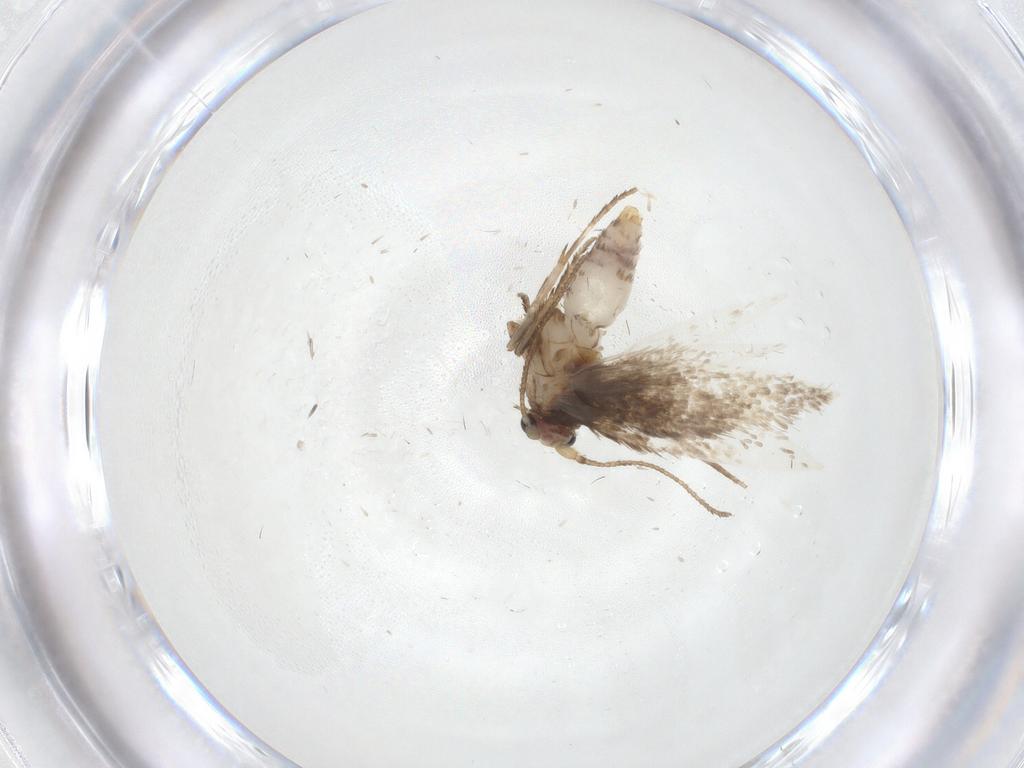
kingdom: Animalia
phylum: Arthropoda
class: Insecta
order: Lepidoptera
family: Nepticulidae
